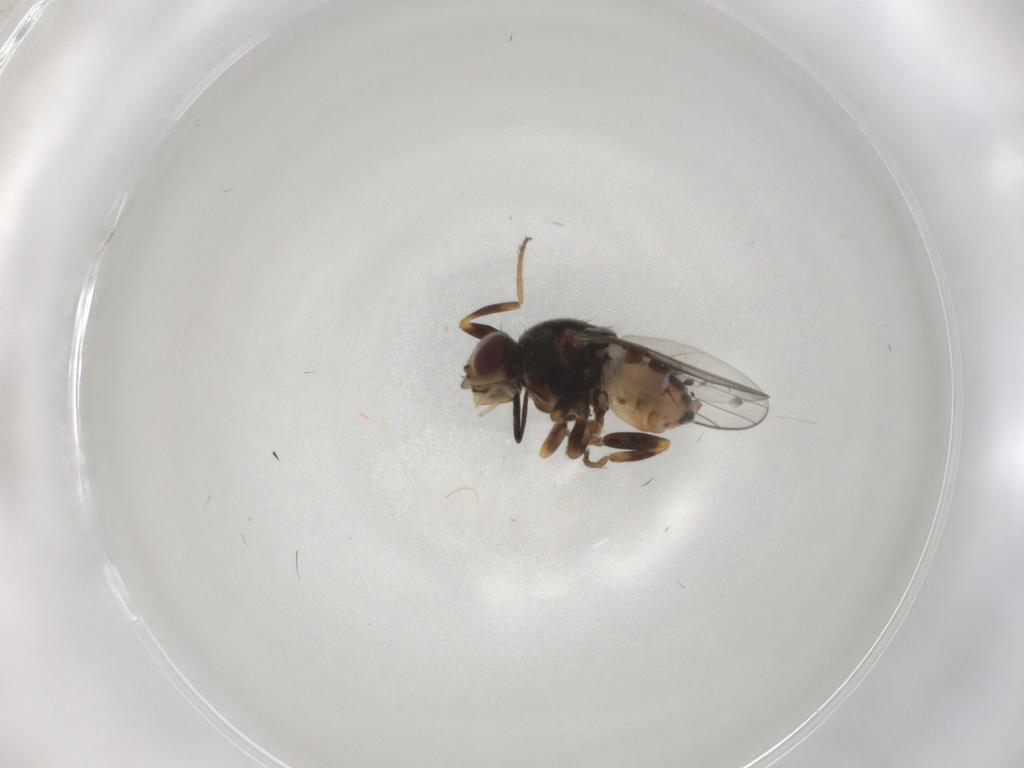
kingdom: Animalia
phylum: Arthropoda
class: Insecta
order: Diptera
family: Chloropidae
